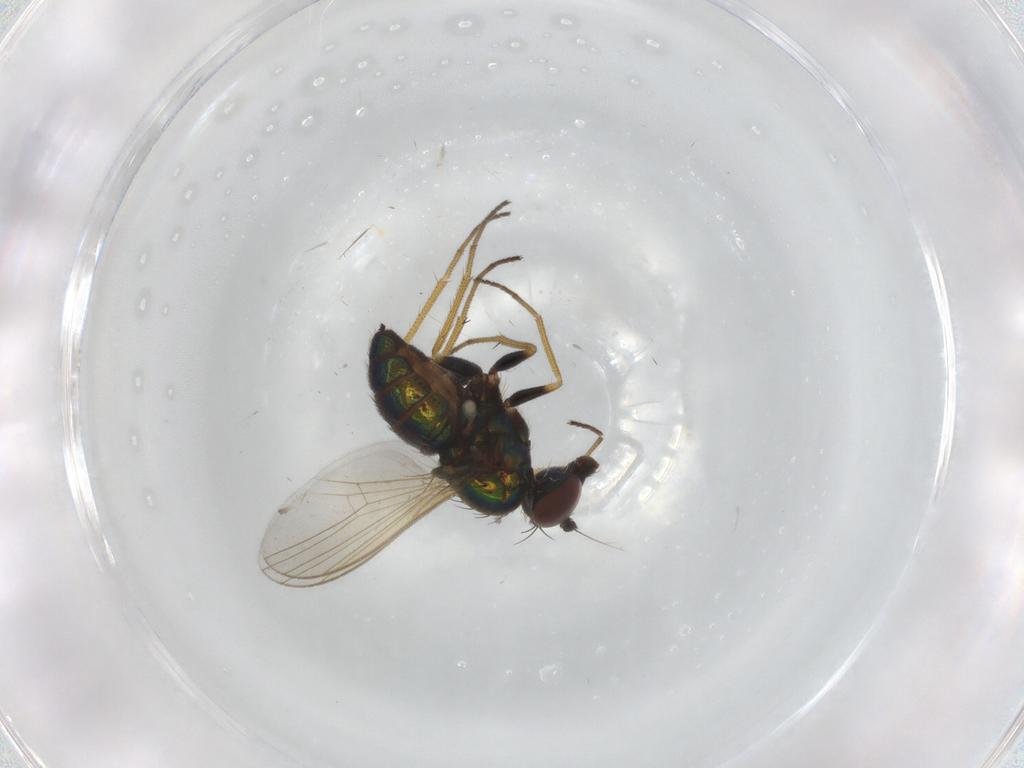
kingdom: Animalia
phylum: Arthropoda
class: Insecta
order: Diptera
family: Dolichopodidae
